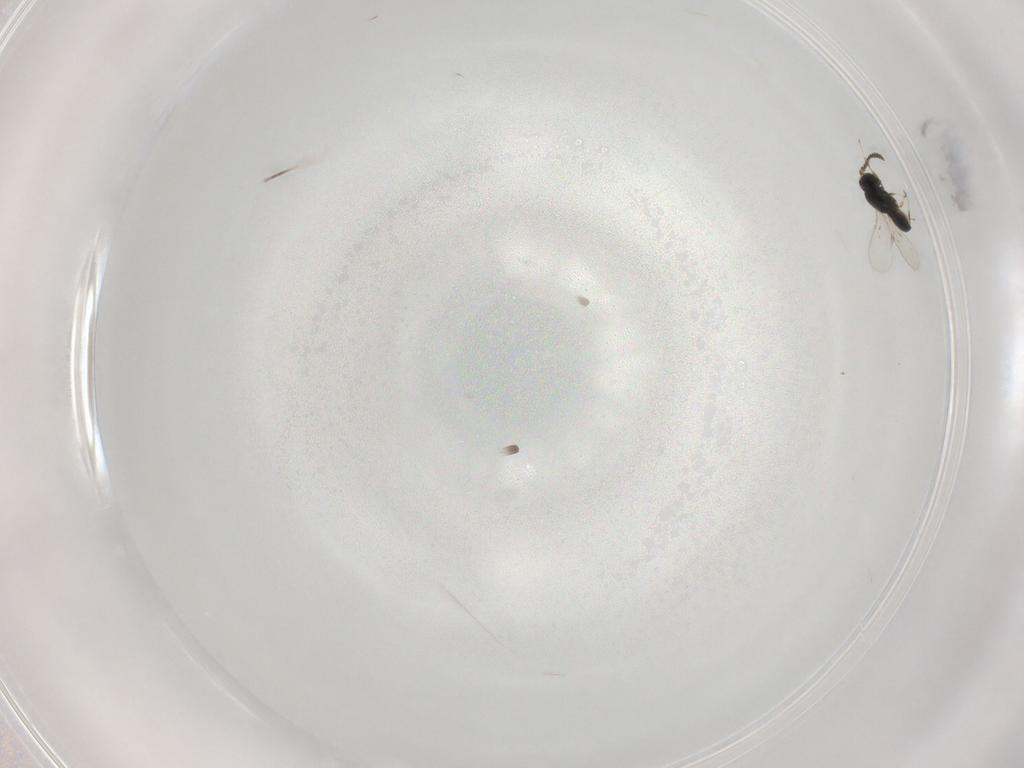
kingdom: Animalia
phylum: Arthropoda
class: Insecta
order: Hymenoptera
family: Scelionidae
